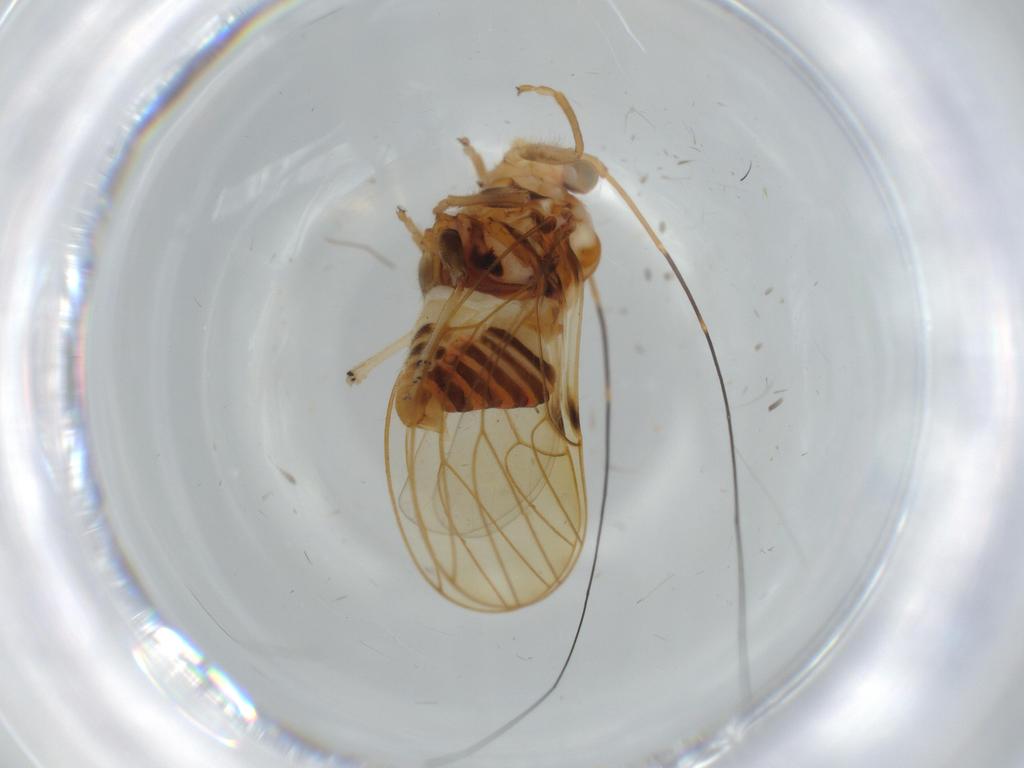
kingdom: Animalia
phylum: Arthropoda
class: Insecta
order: Hemiptera
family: Psyllidae
